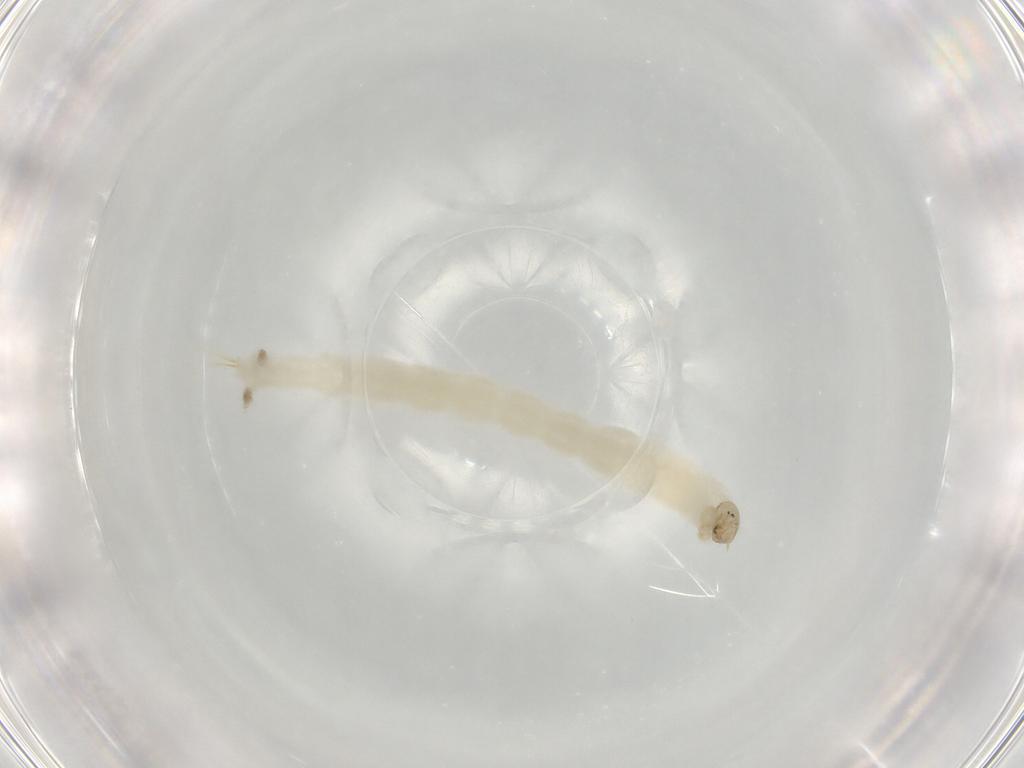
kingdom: Animalia
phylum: Arthropoda
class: Insecta
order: Diptera
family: Chironomidae
